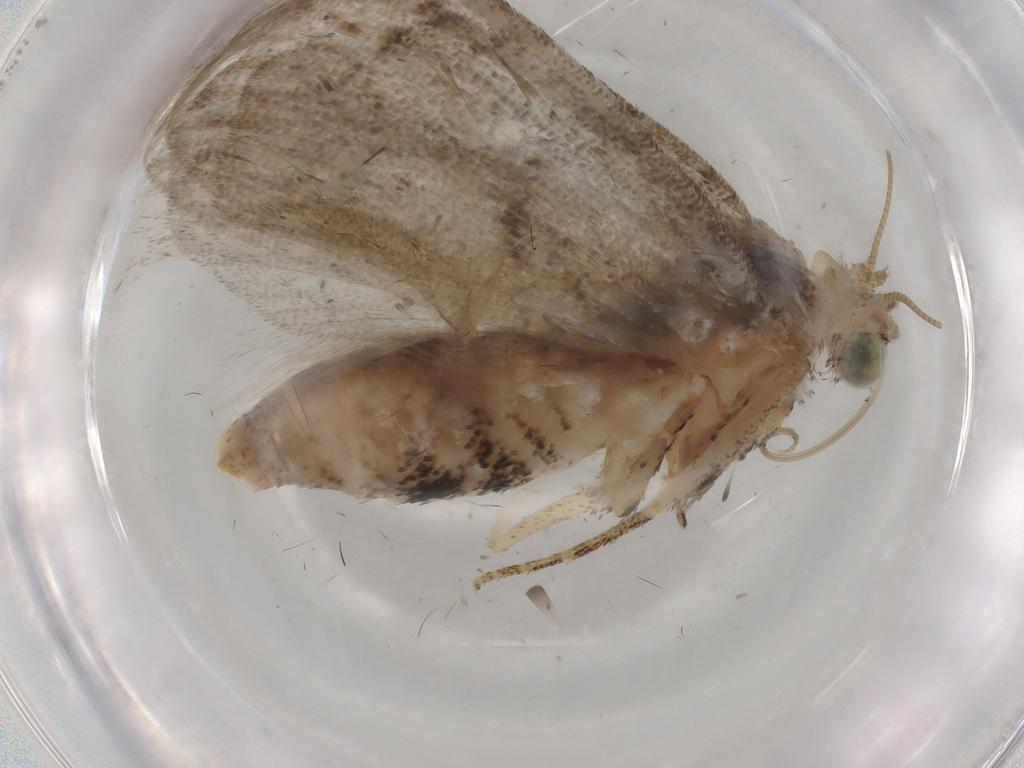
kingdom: Animalia
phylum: Arthropoda
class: Insecta
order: Lepidoptera
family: Nolidae
